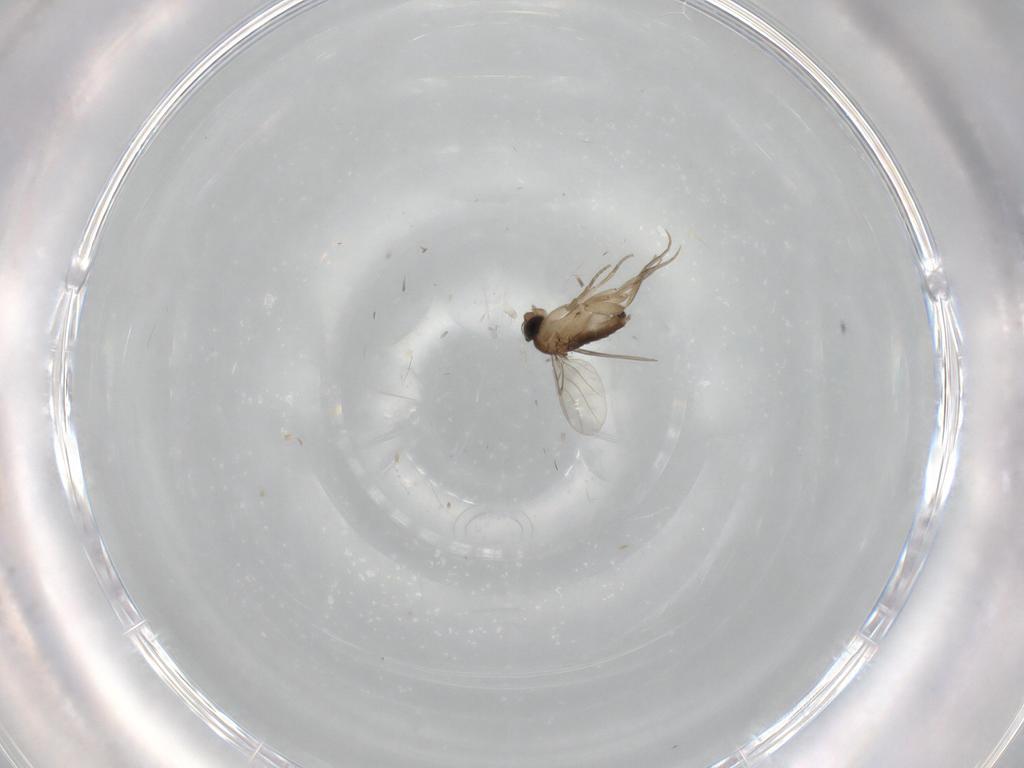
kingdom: Animalia
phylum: Arthropoda
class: Insecta
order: Diptera
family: Phoridae
